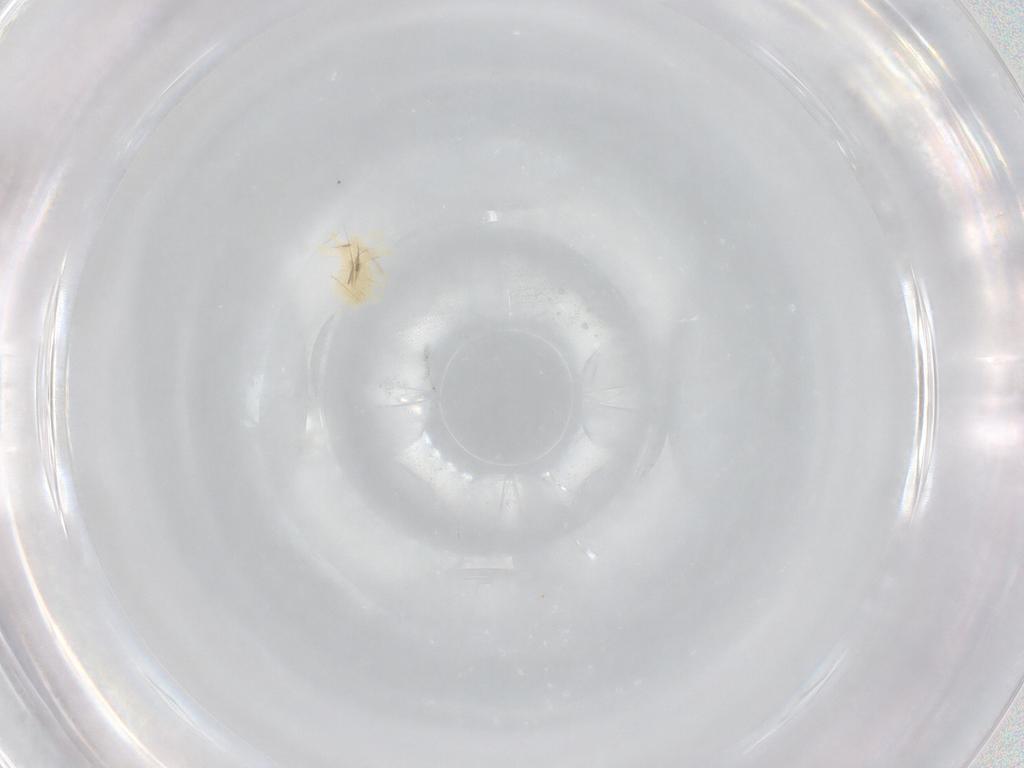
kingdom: Animalia
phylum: Arthropoda
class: Arachnida
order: Trombidiformes
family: Anystidae
